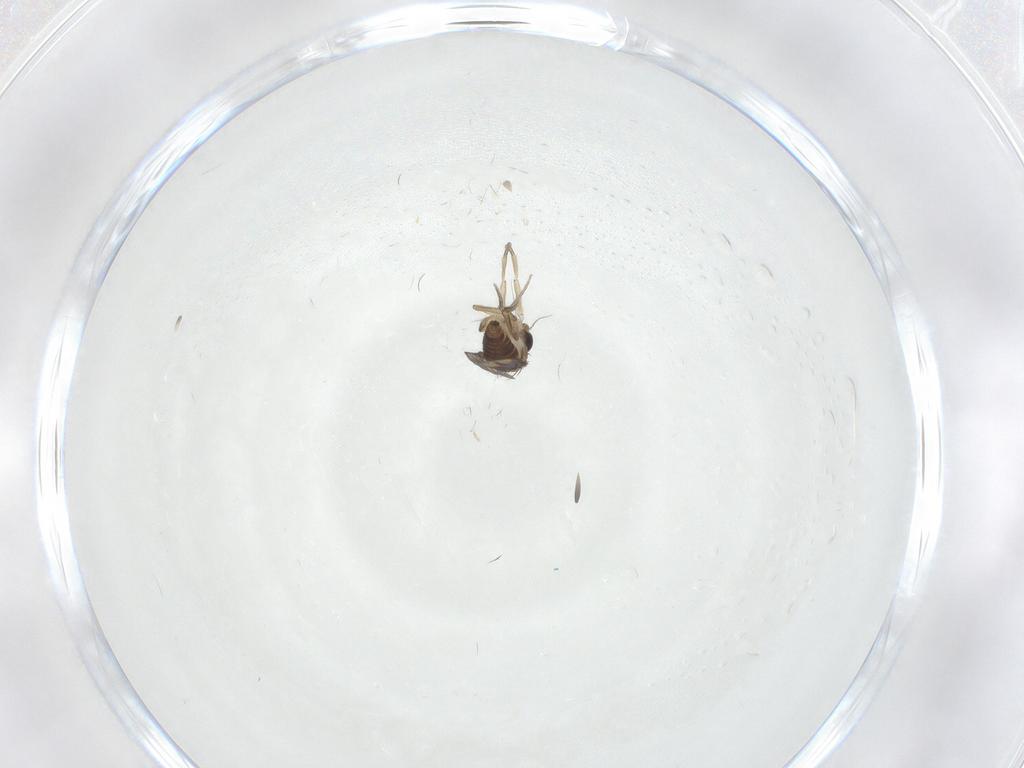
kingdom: Animalia
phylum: Arthropoda
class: Insecta
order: Diptera
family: Phoridae
